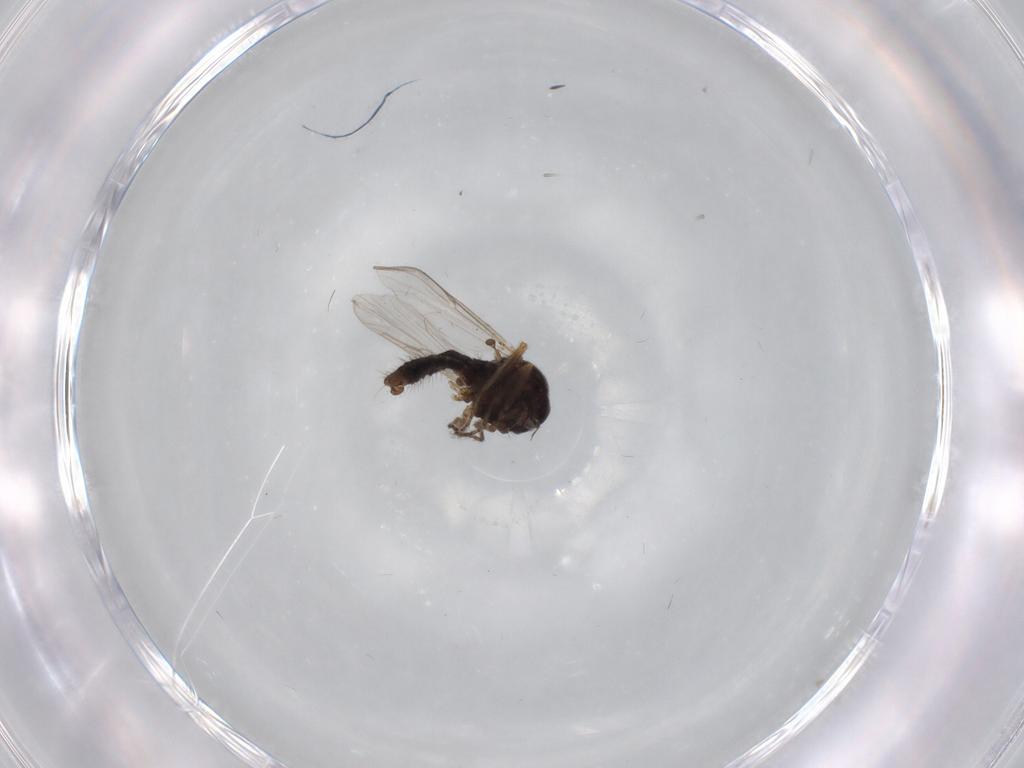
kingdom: Animalia
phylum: Arthropoda
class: Insecta
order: Diptera
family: Ceratopogonidae
